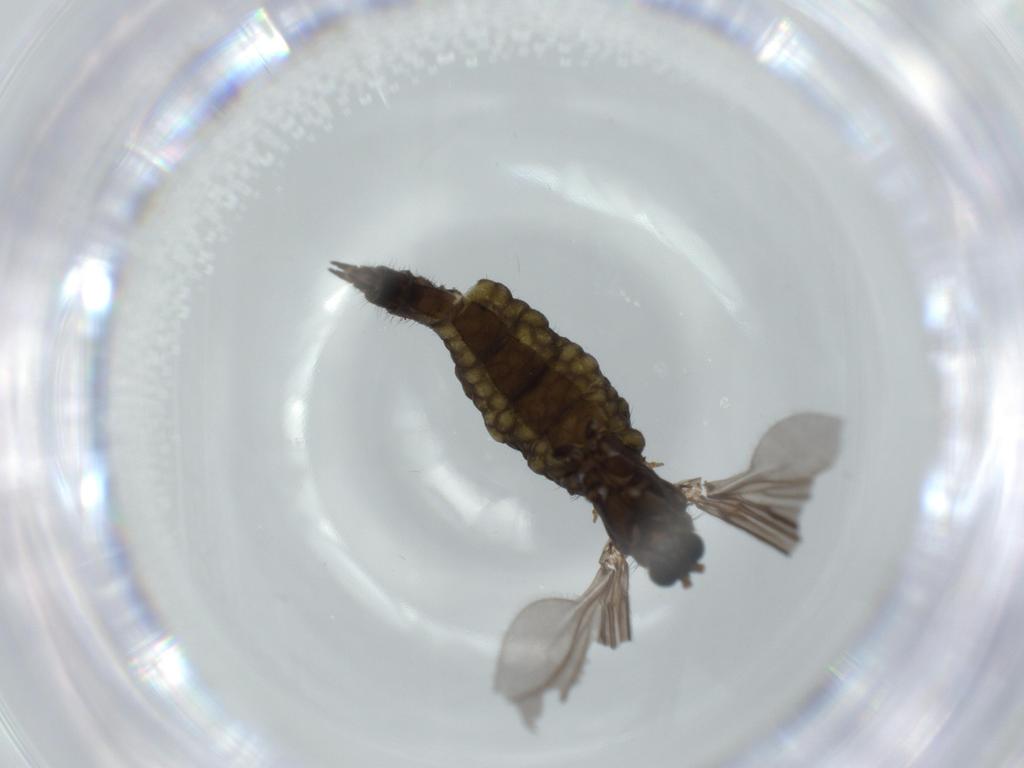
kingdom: Animalia
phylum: Arthropoda
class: Insecta
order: Diptera
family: Sciaridae
